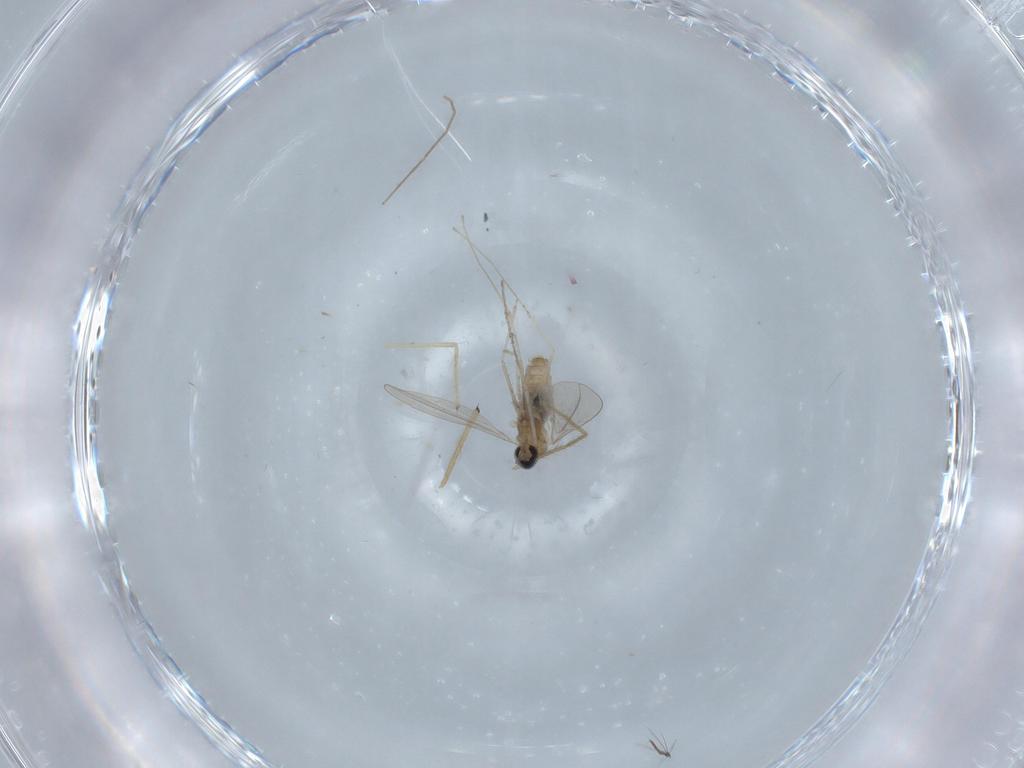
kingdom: Animalia
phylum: Arthropoda
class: Insecta
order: Diptera
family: Cecidomyiidae
